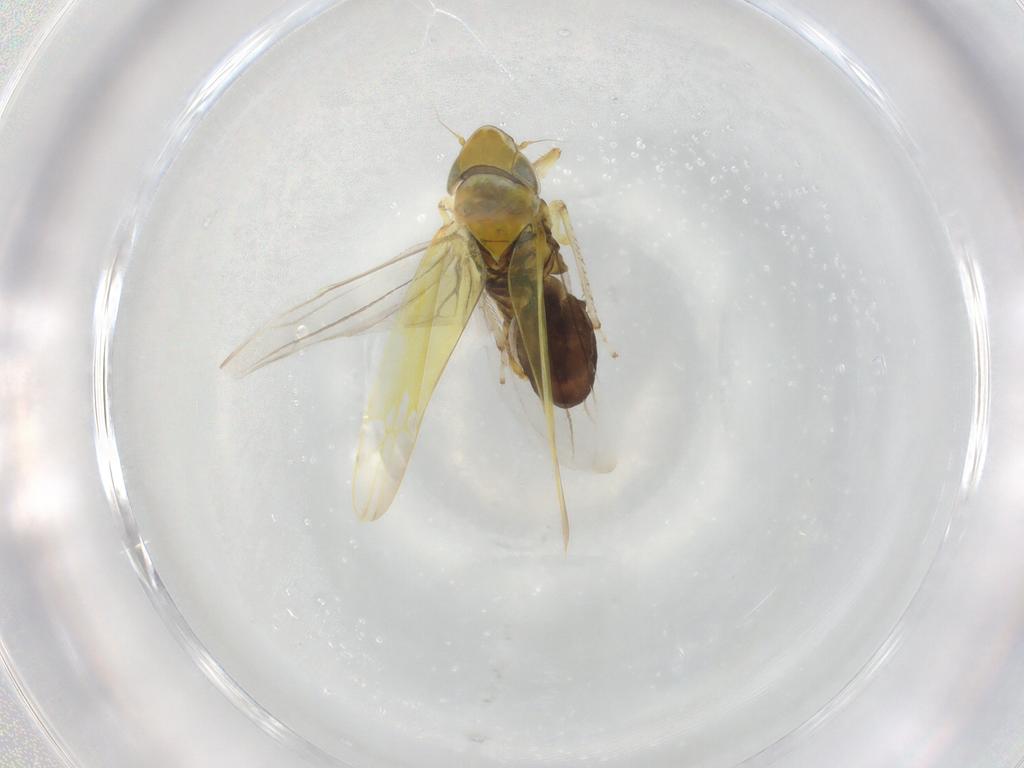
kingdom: Animalia
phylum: Arthropoda
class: Insecta
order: Hemiptera
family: Cicadellidae
